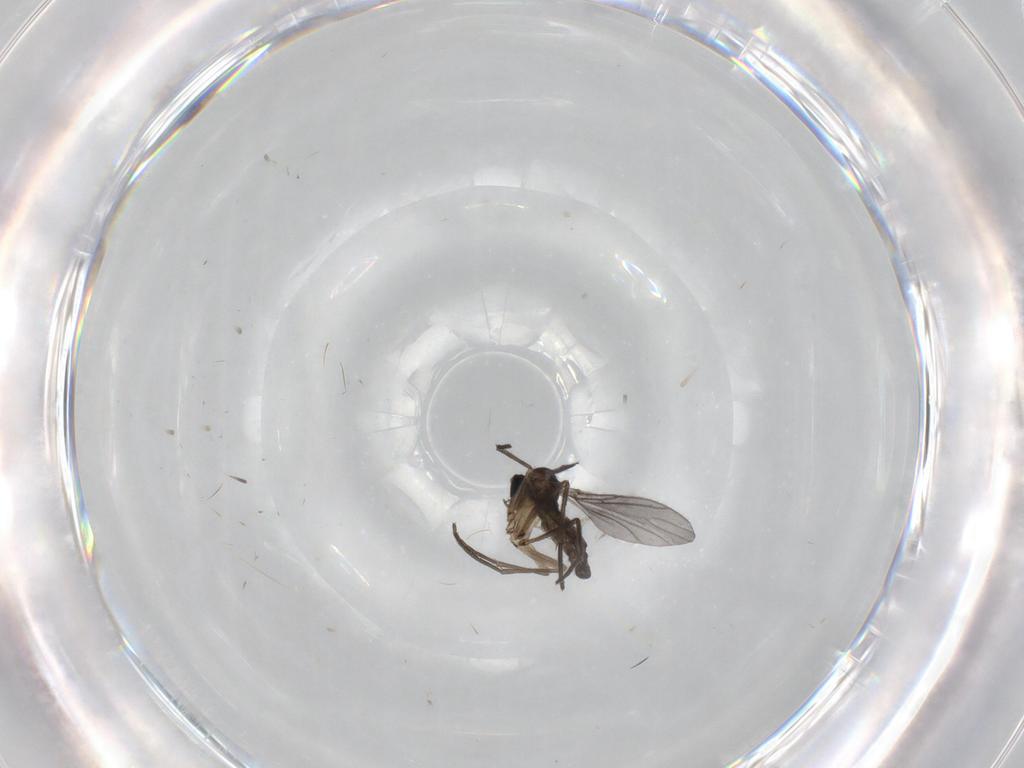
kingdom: Animalia
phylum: Arthropoda
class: Insecta
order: Diptera
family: Sciaridae
